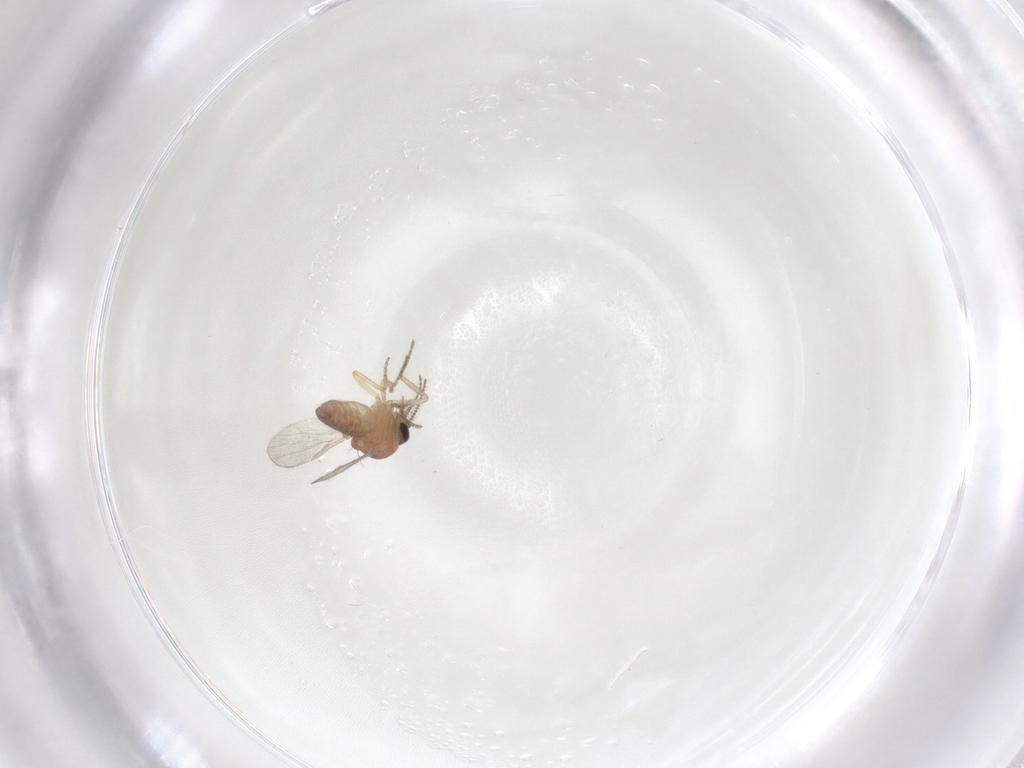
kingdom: Animalia
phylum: Arthropoda
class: Insecta
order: Diptera
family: Ceratopogonidae
